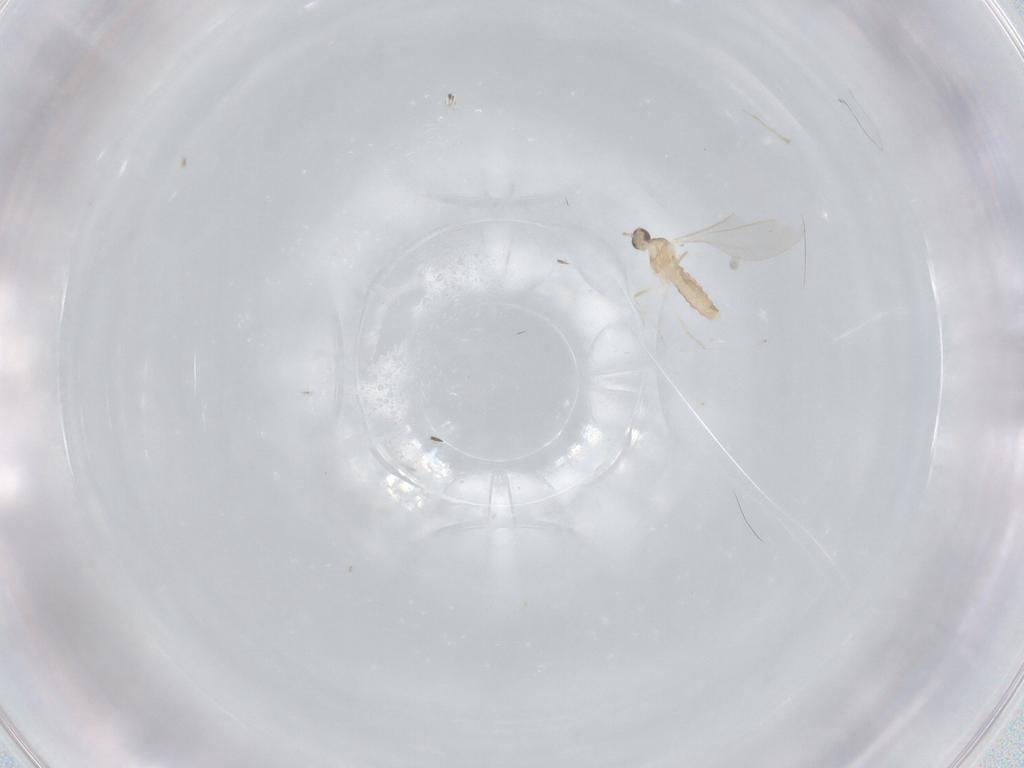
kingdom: Animalia
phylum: Arthropoda
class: Insecta
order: Diptera
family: Cecidomyiidae
